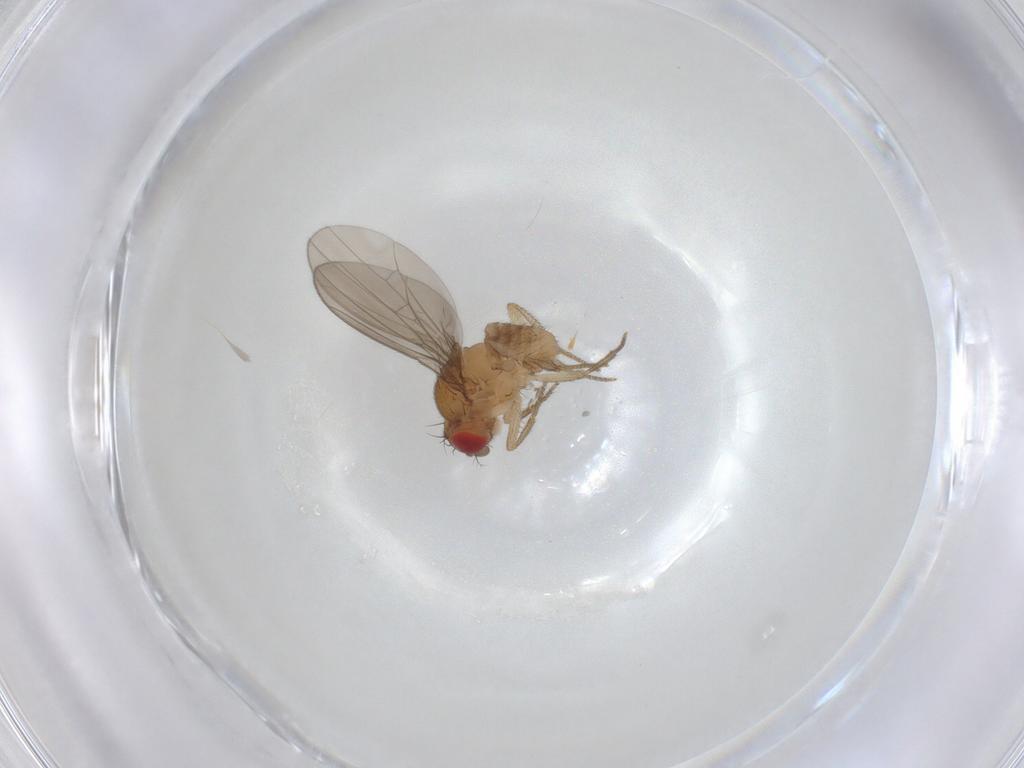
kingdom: Animalia
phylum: Arthropoda
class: Insecta
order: Diptera
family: Drosophilidae
